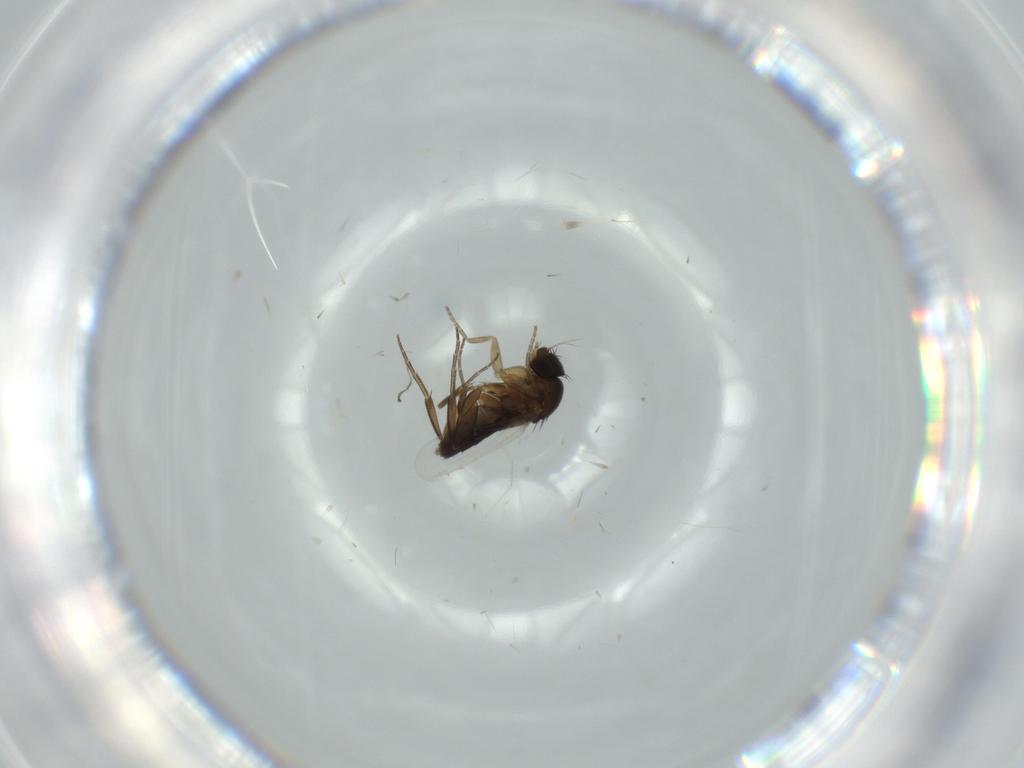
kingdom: Animalia
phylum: Arthropoda
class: Insecta
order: Diptera
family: Phoridae
